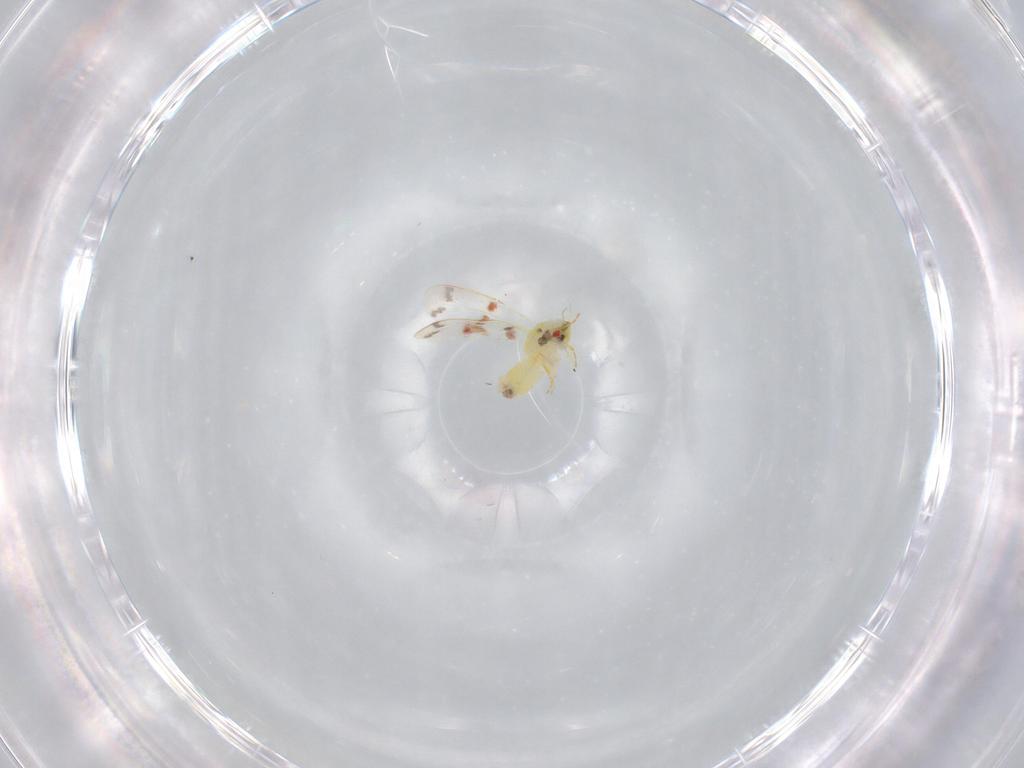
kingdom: Animalia
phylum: Arthropoda
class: Insecta
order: Hemiptera
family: Aleyrodidae
